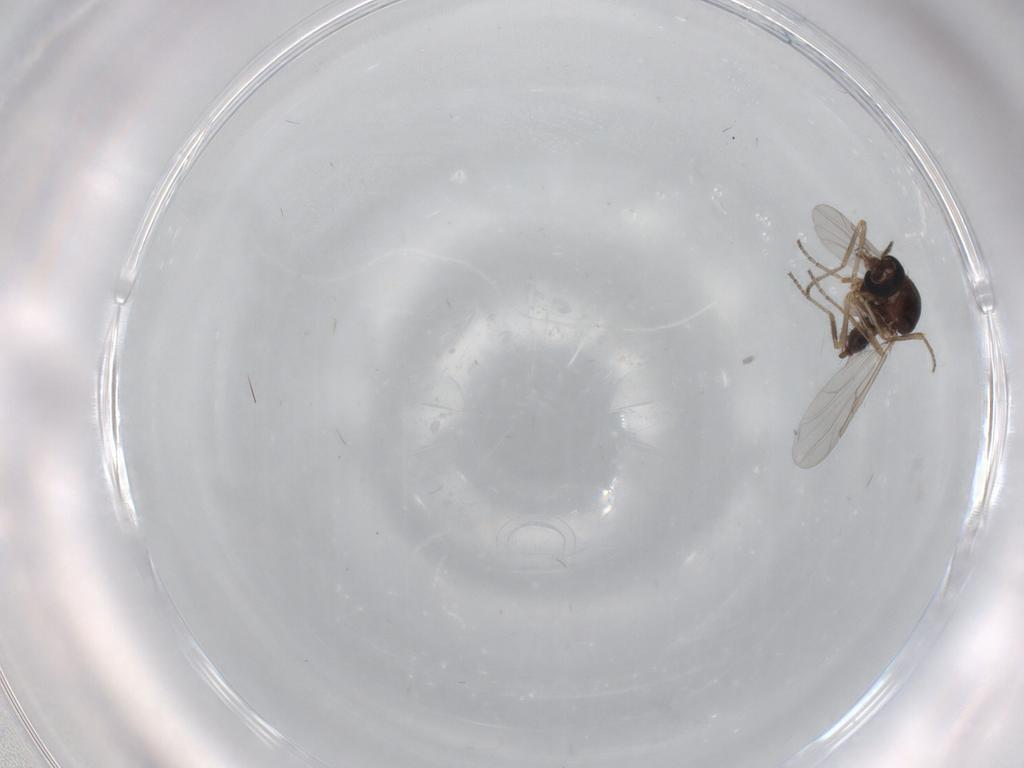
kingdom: Animalia
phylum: Arthropoda
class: Insecta
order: Diptera
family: Ceratopogonidae
